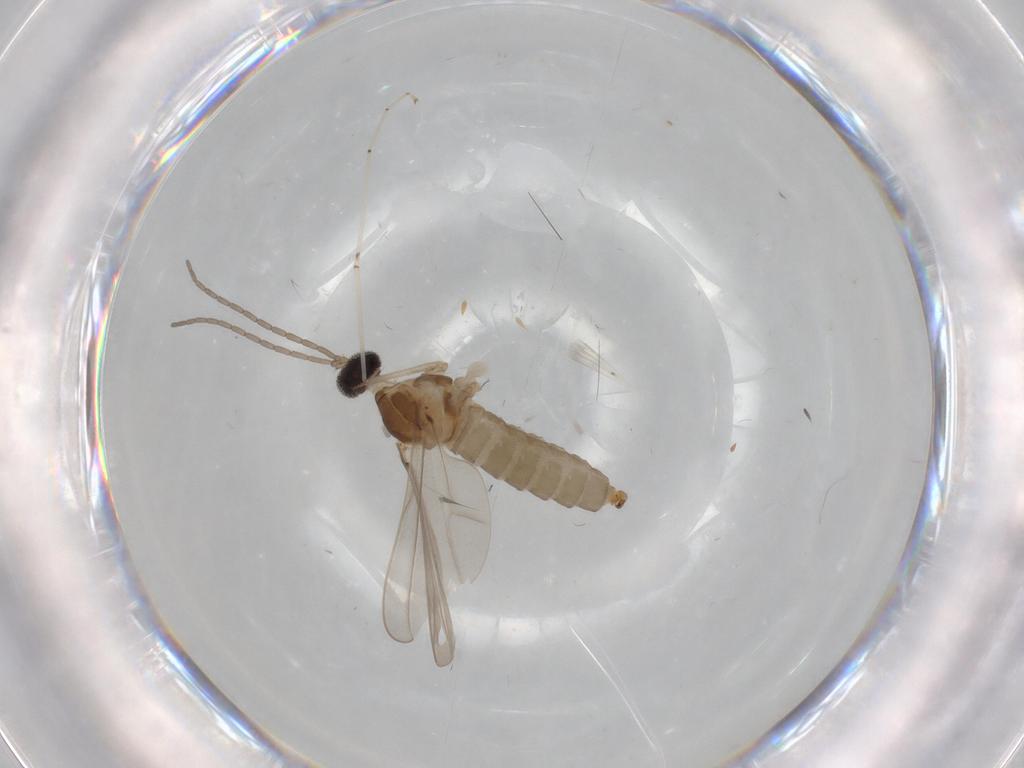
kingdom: Animalia
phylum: Arthropoda
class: Insecta
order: Diptera
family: Cecidomyiidae
